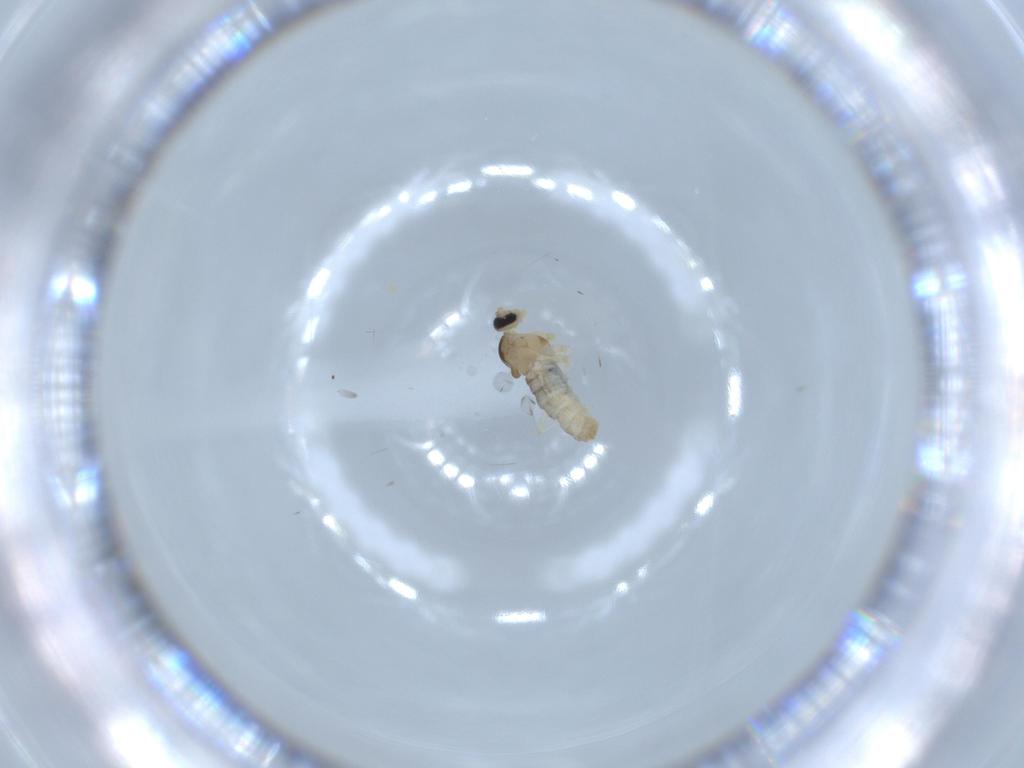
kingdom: Animalia
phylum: Arthropoda
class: Insecta
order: Diptera
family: Cecidomyiidae
